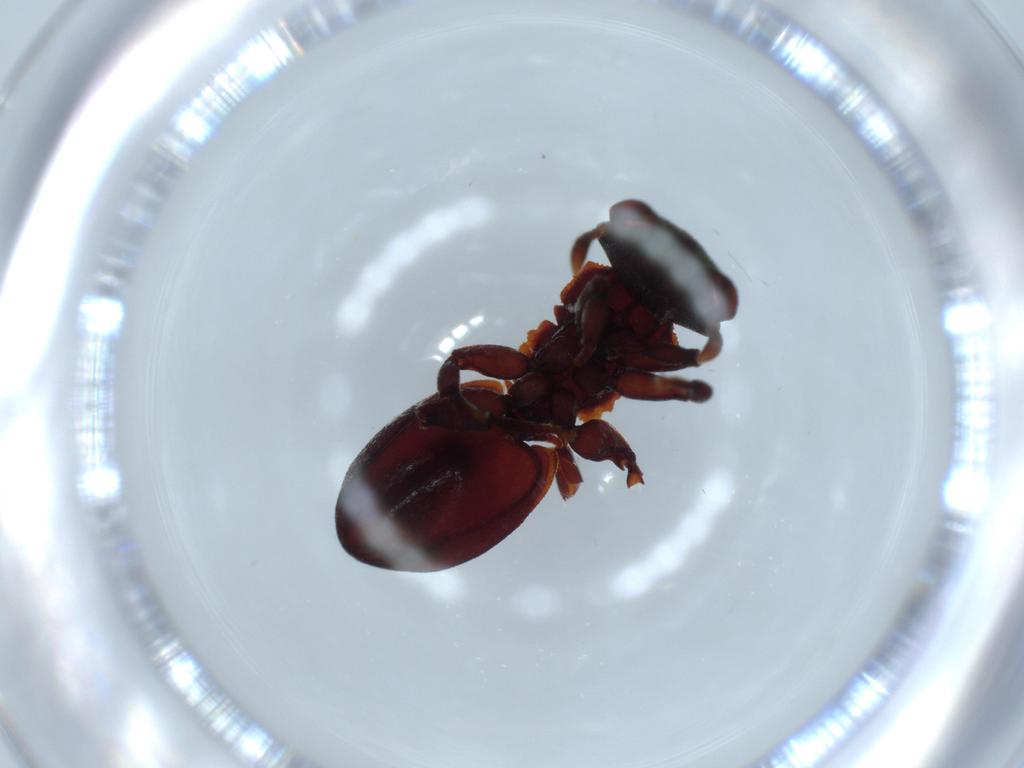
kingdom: Animalia
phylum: Arthropoda
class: Insecta
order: Hymenoptera
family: Formicidae
